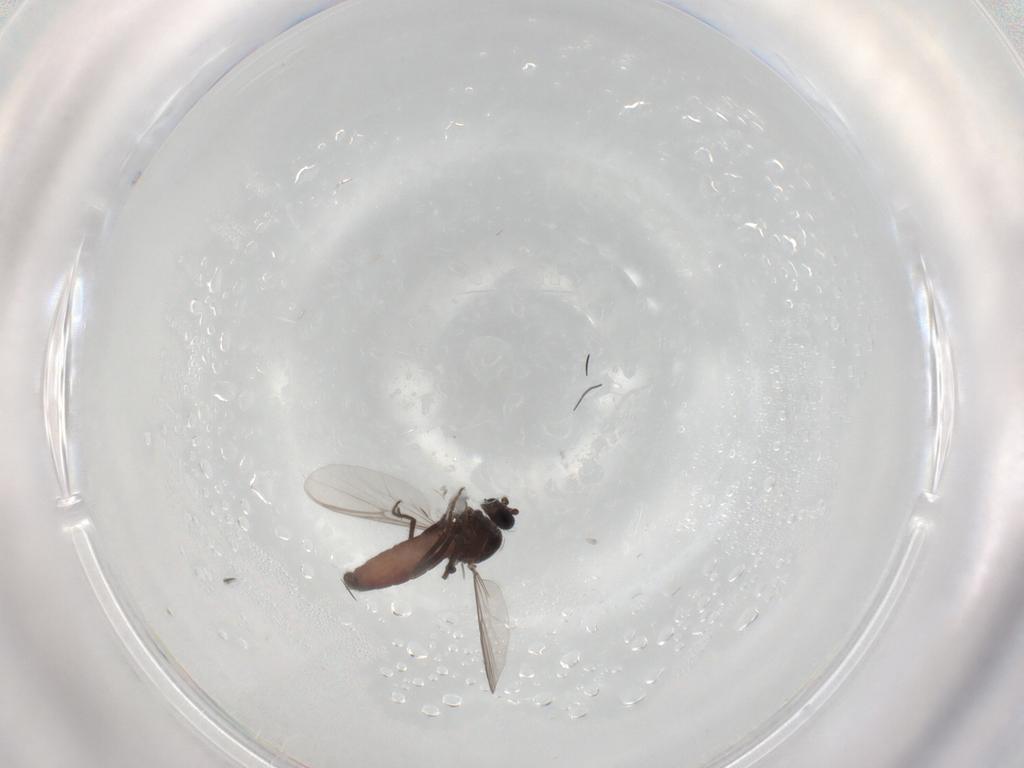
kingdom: Animalia
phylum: Arthropoda
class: Insecta
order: Diptera
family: Ceratopogonidae
